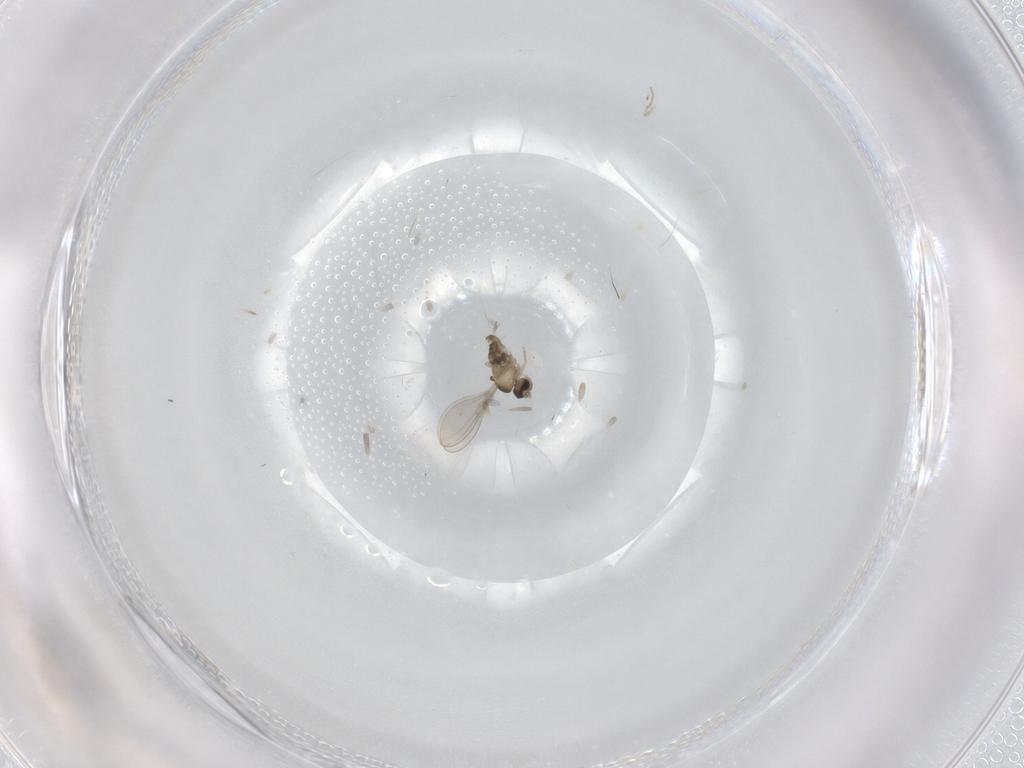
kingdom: Animalia
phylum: Arthropoda
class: Insecta
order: Diptera
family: Cecidomyiidae
